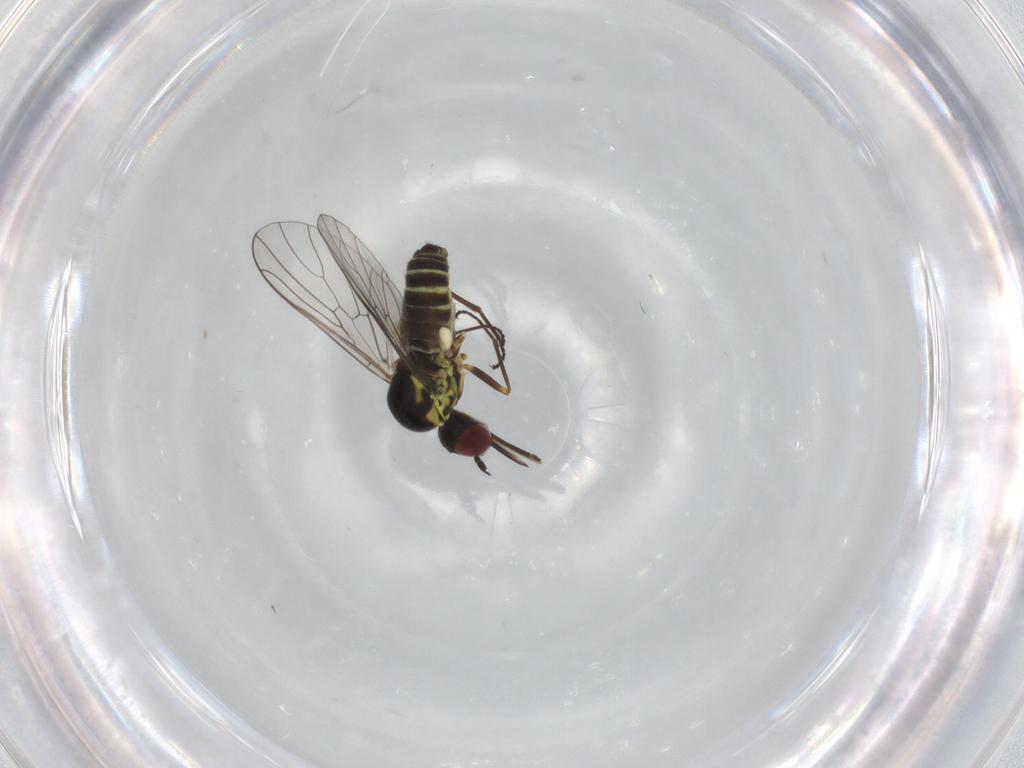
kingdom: Animalia
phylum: Arthropoda
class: Insecta
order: Diptera
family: Bombyliidae
